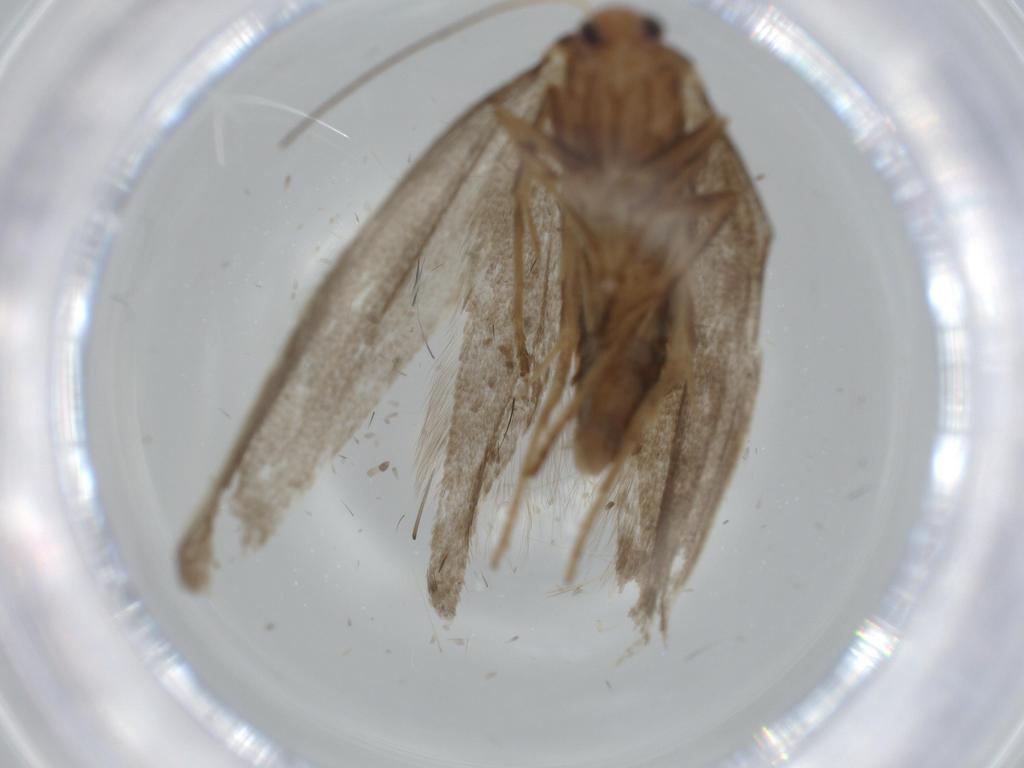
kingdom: Animalia
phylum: Arthropoda
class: Insecta
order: Lepidoptera
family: Argyresthiidae
